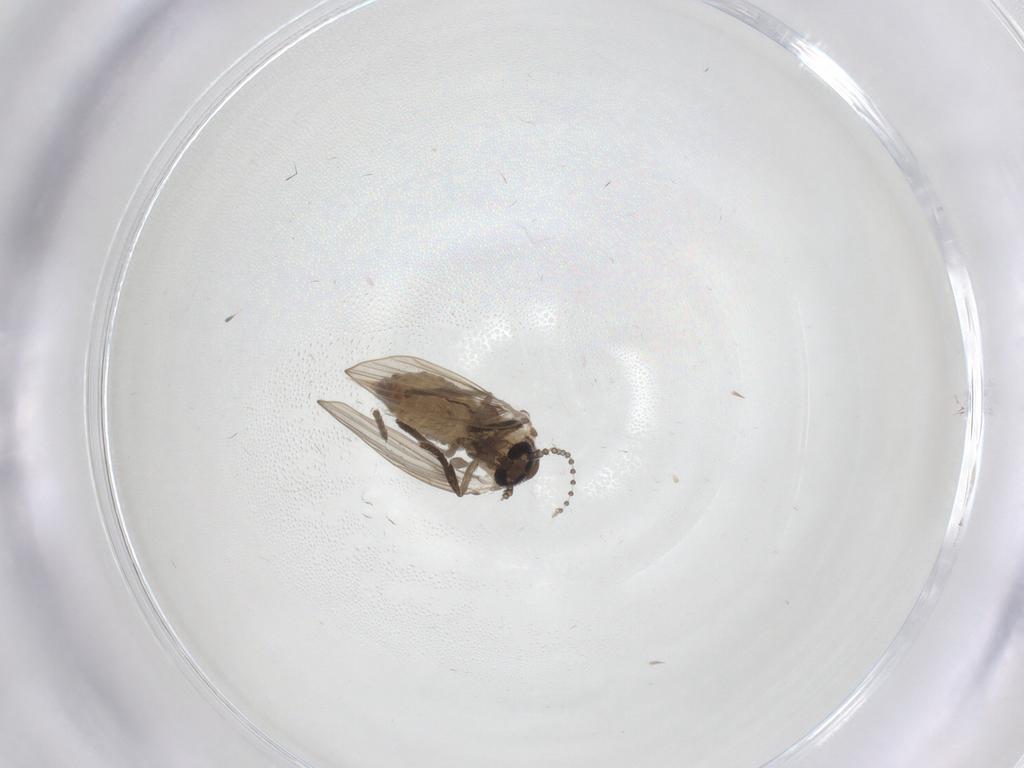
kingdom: Animalia
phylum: Arthropoda
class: Insecta
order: Diptera
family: Psychodidae
